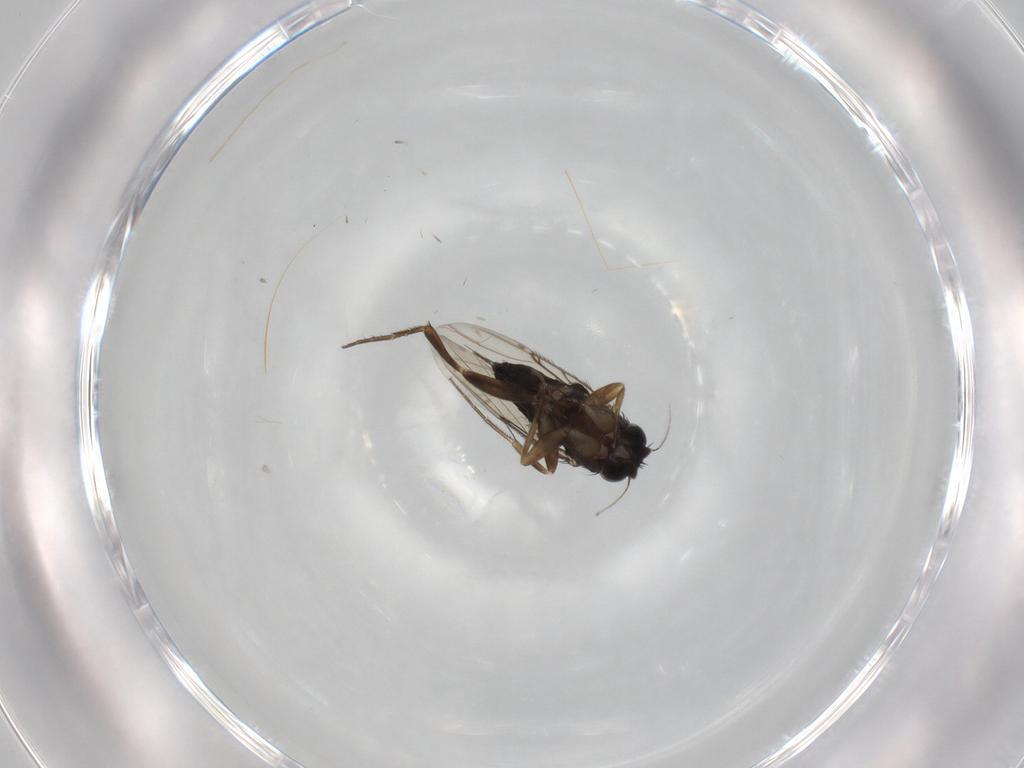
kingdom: Animalia
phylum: Arthropoda
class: Insecta
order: Diptera
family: Phoridae
